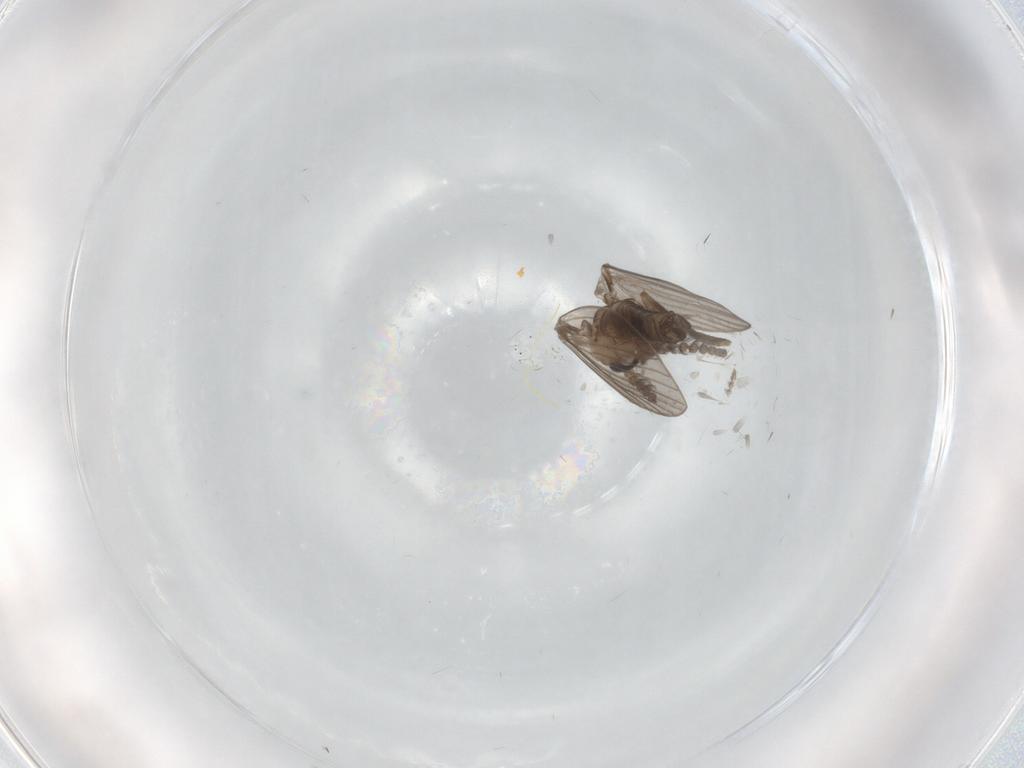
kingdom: Animalia
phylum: Arthropoda
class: Insecta
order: Diptera
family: Psychodidae
